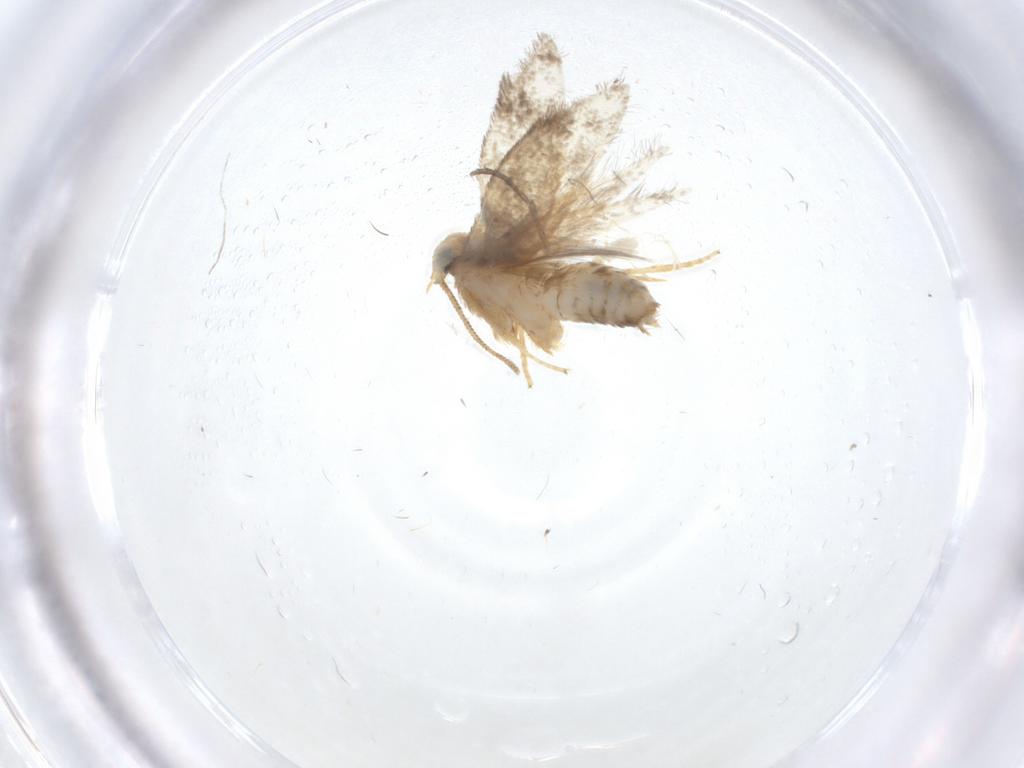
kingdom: Animalia
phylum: Arthropoda
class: Insecta
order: Lepidoptera
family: Nepticulidae
